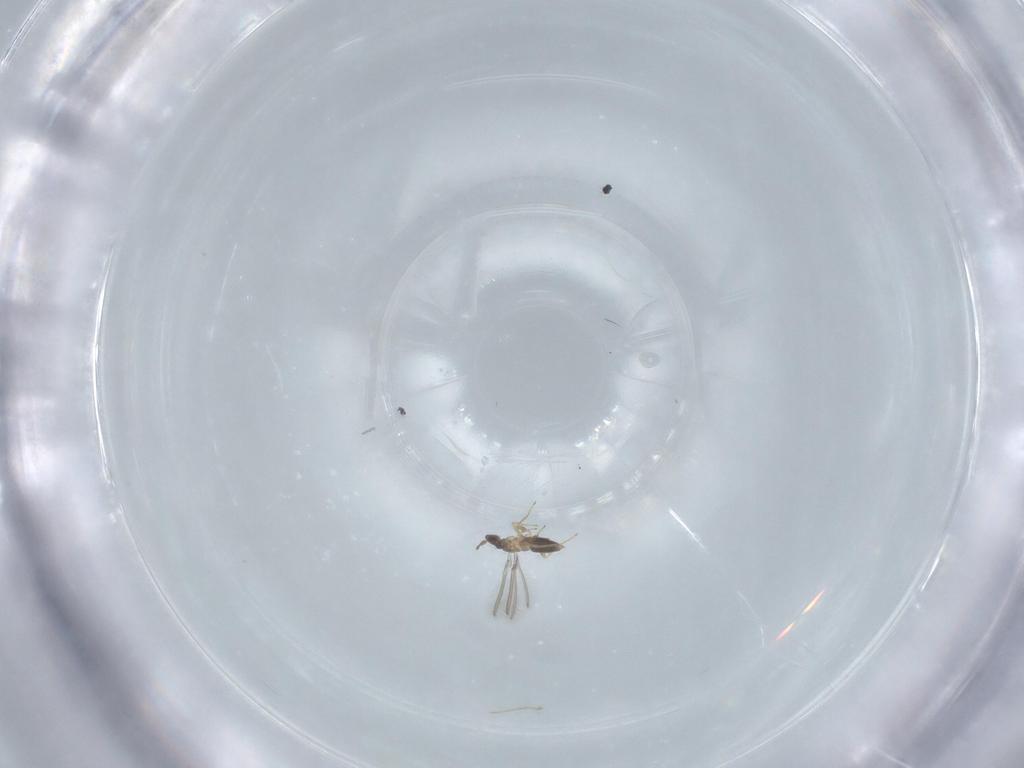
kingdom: Animalia
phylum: Arthropoda
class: Insecta
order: Hymenoptera
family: Mymaridae
